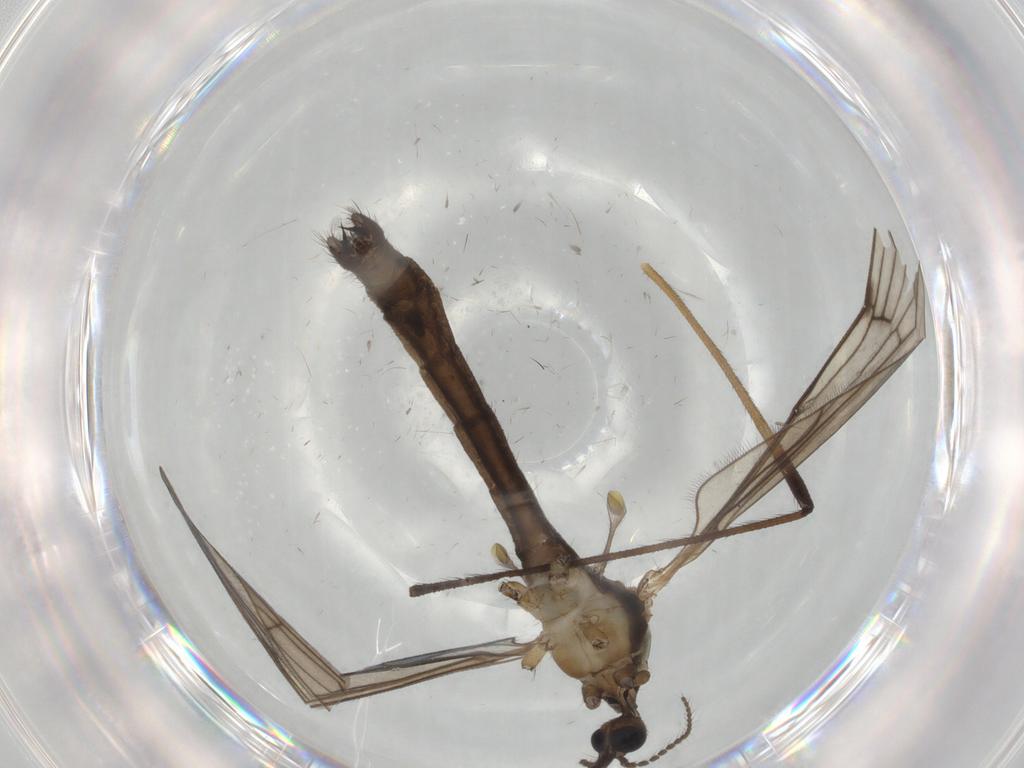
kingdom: Animalia
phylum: Arthropoda
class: Insecta
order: Diptera
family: Limoniidae
